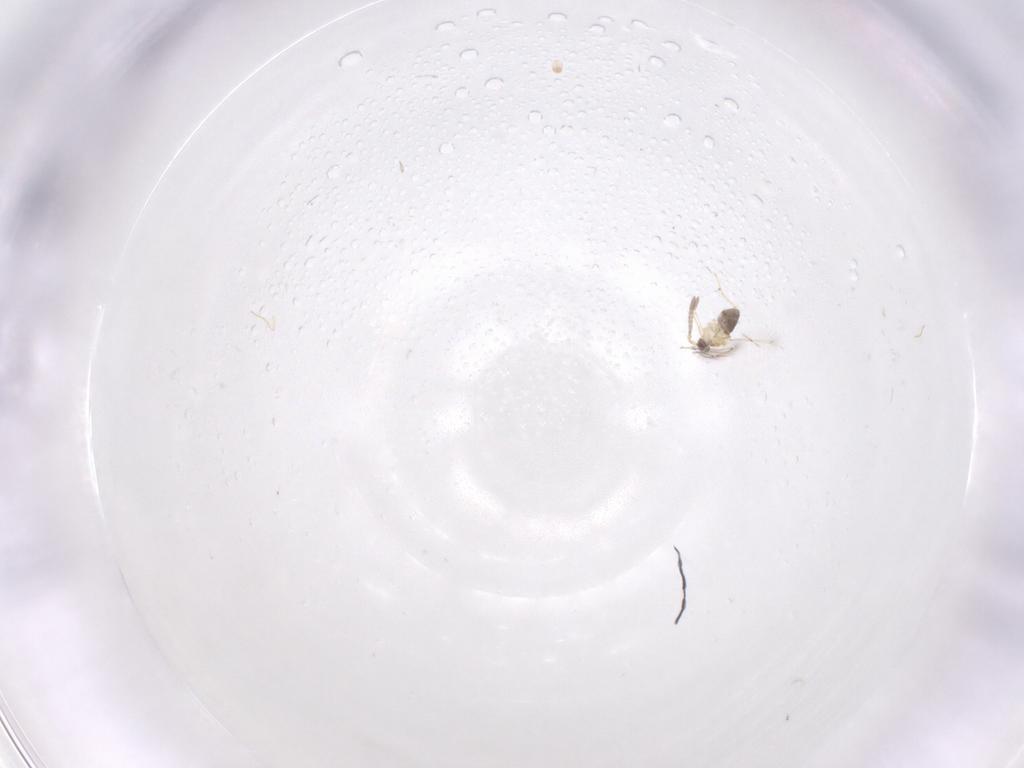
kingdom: Animalia
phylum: Arthropoda
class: Insecta
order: Hymenoptera
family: Mymaridae
